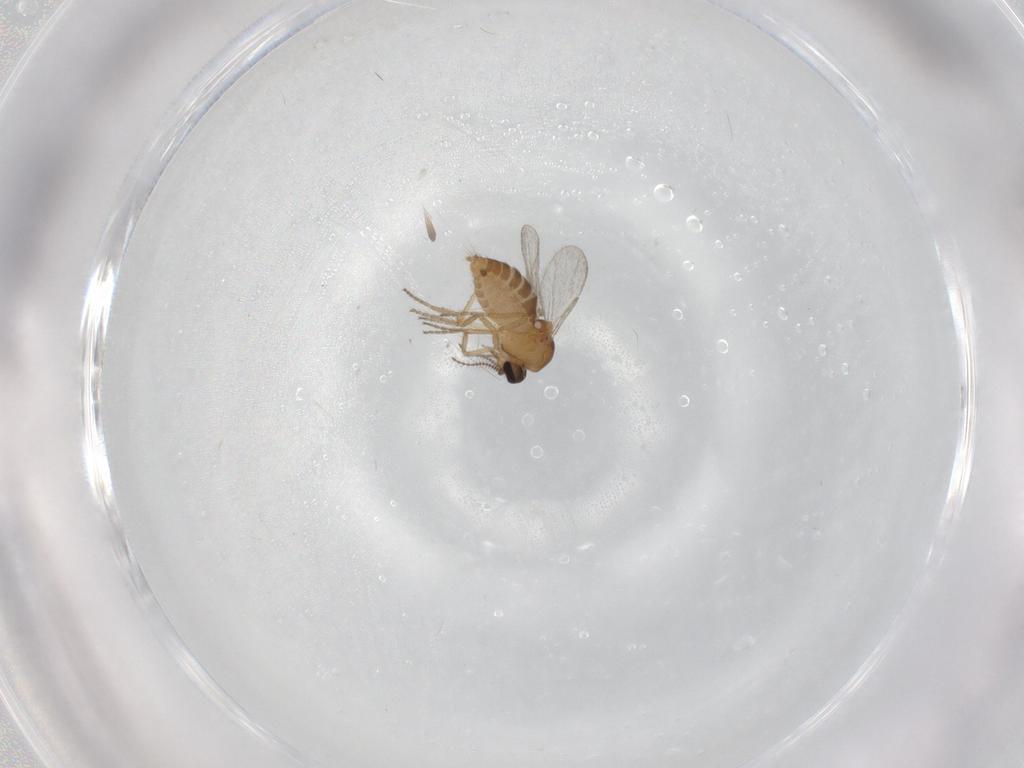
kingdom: Animalia
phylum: Arthropoda
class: Insecta
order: Diptera
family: Ceratopogonidae
